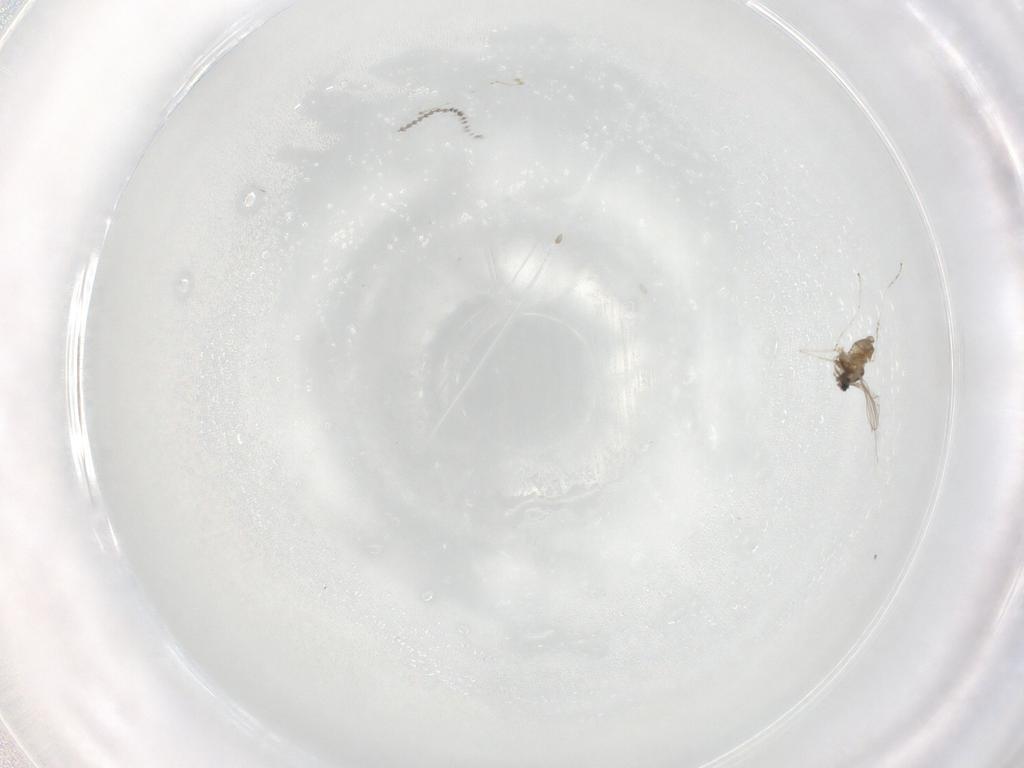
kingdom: Animalia
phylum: Arthropoda
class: Insecta
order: Diptera
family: Cecidomyiidae
